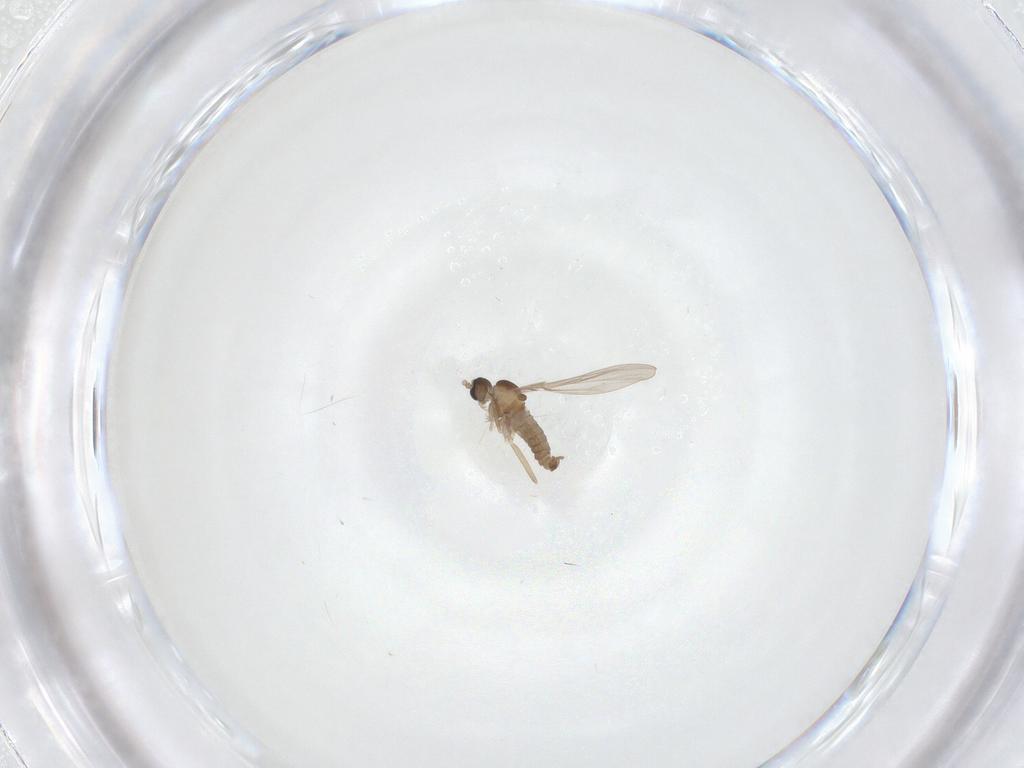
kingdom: Animalia
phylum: Arthropoda
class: Insecta
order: Diptera
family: Cecidomyiidae
